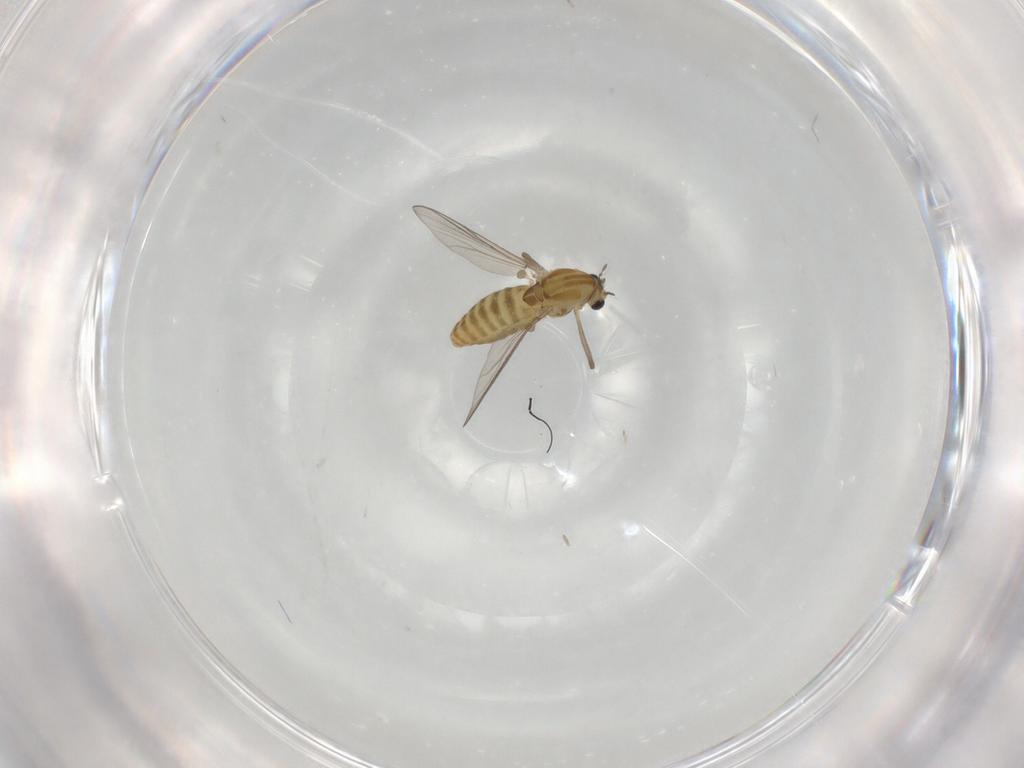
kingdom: Animalia
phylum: Arthropoda
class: Insecta
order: Diptera
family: Chironomidae
